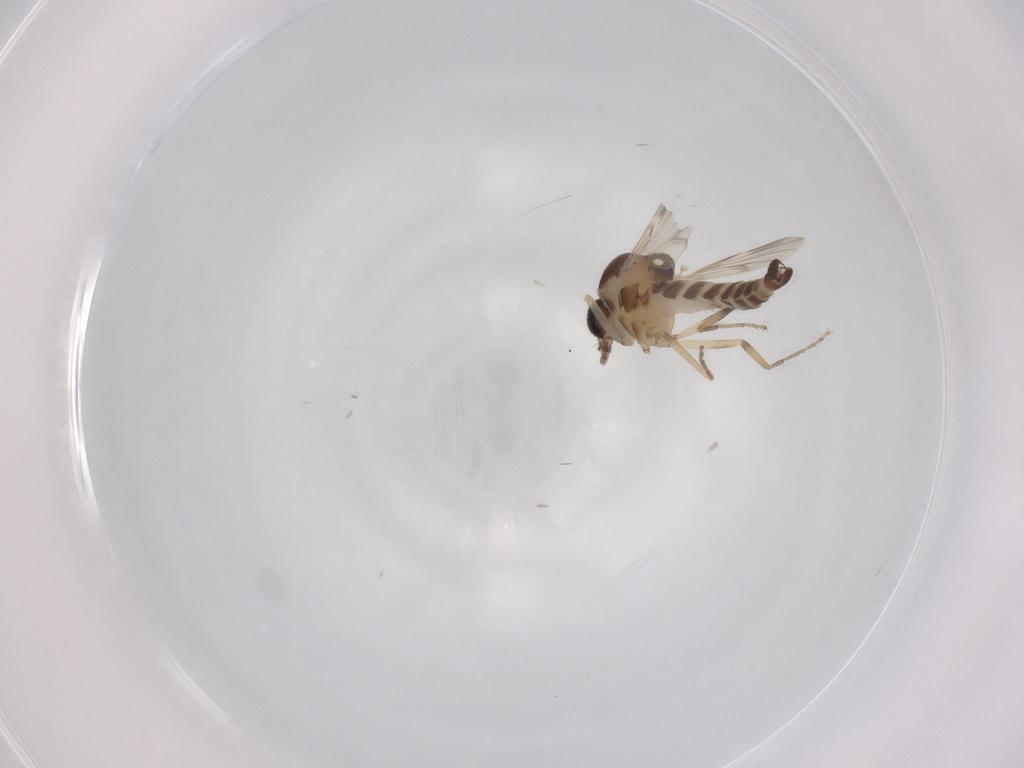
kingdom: Animalia
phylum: Arthropoda
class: Insecta
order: Diptera
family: Ceratopogonidae
